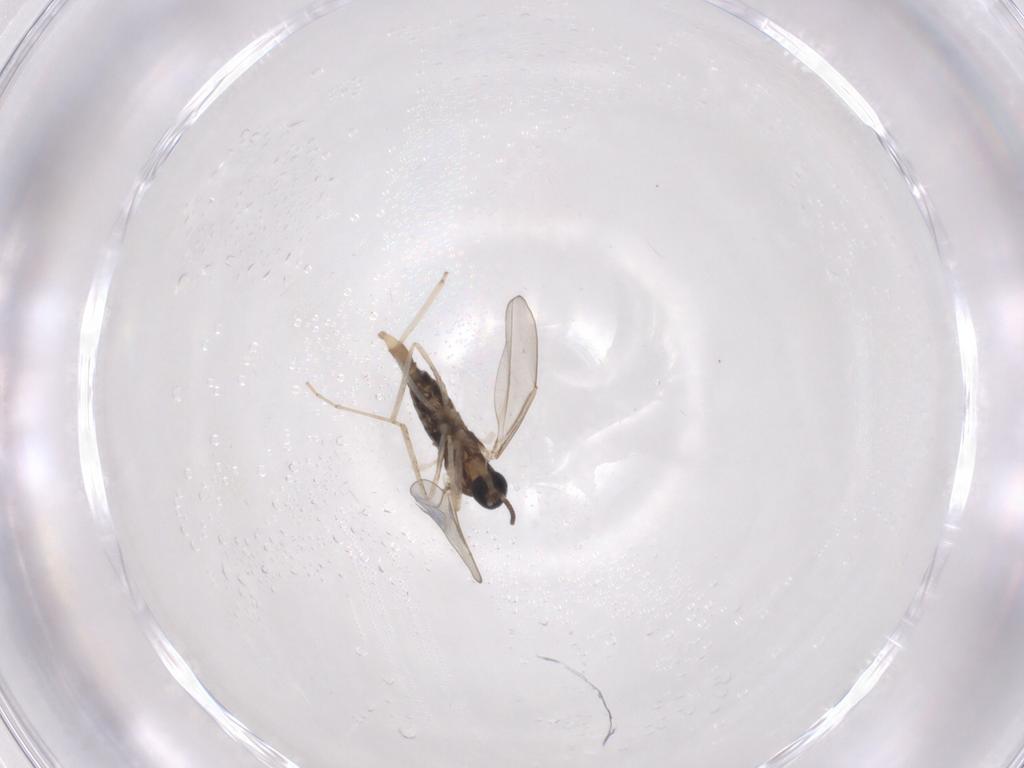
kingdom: Animalia
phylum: Arthropoda
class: Insecta
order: Diptera
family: Cecidomyiidae
